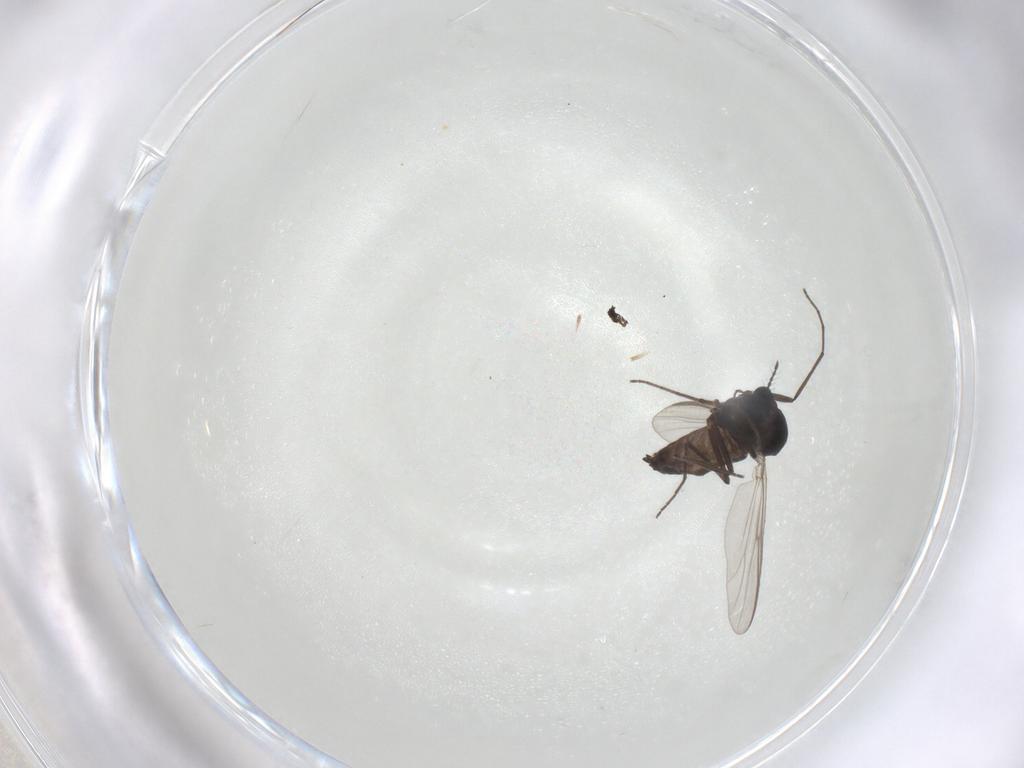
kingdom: Animalia
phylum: Arthropoda
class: Insecta
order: Diptera
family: Chironomidae
